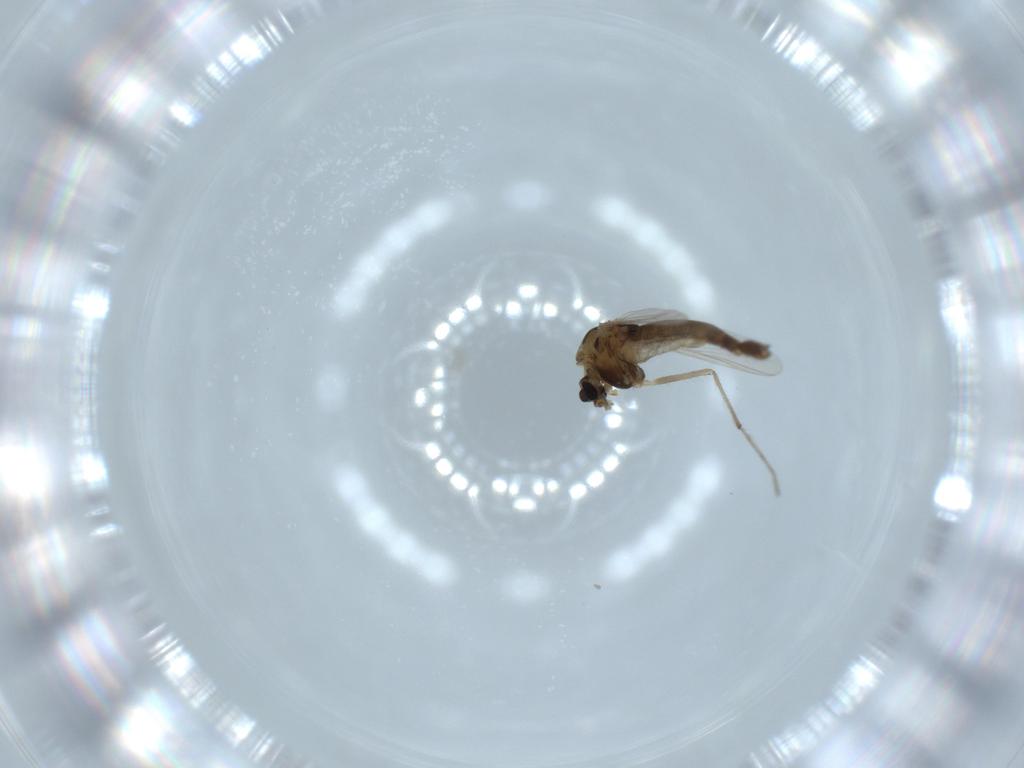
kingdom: Animalia
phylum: Arthropoda
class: Insecta
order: Diptera
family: Chironomidae
